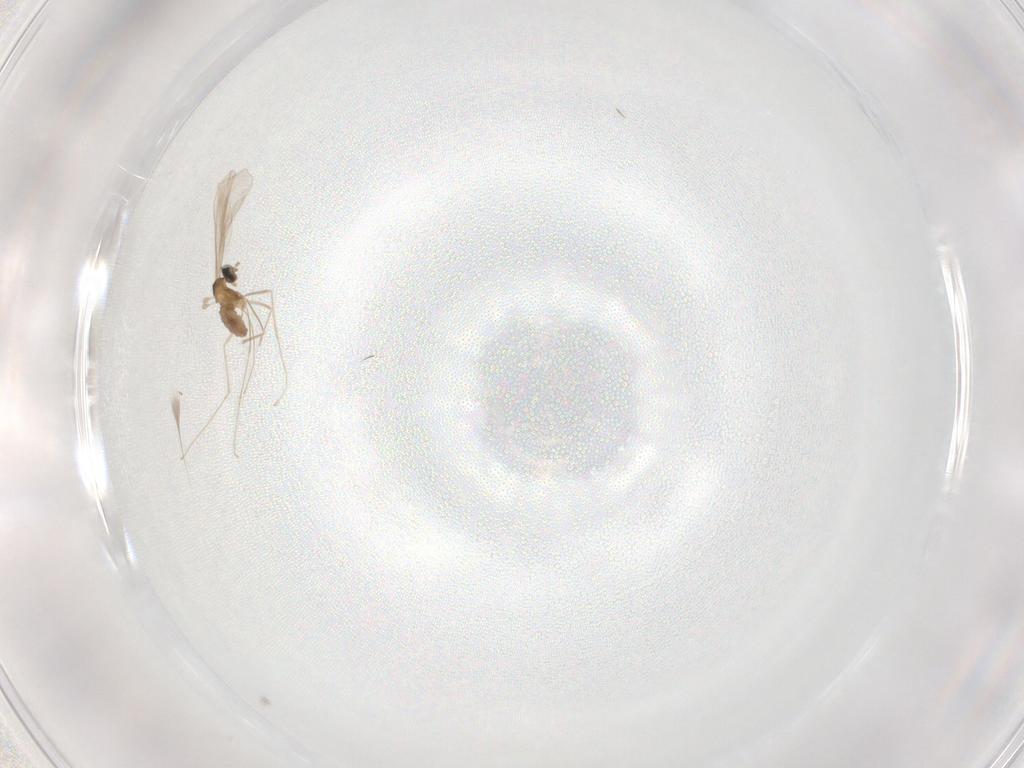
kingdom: Animalia
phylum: Arthropoda
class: Insecta
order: Diptera
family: Cecidomyiidae
